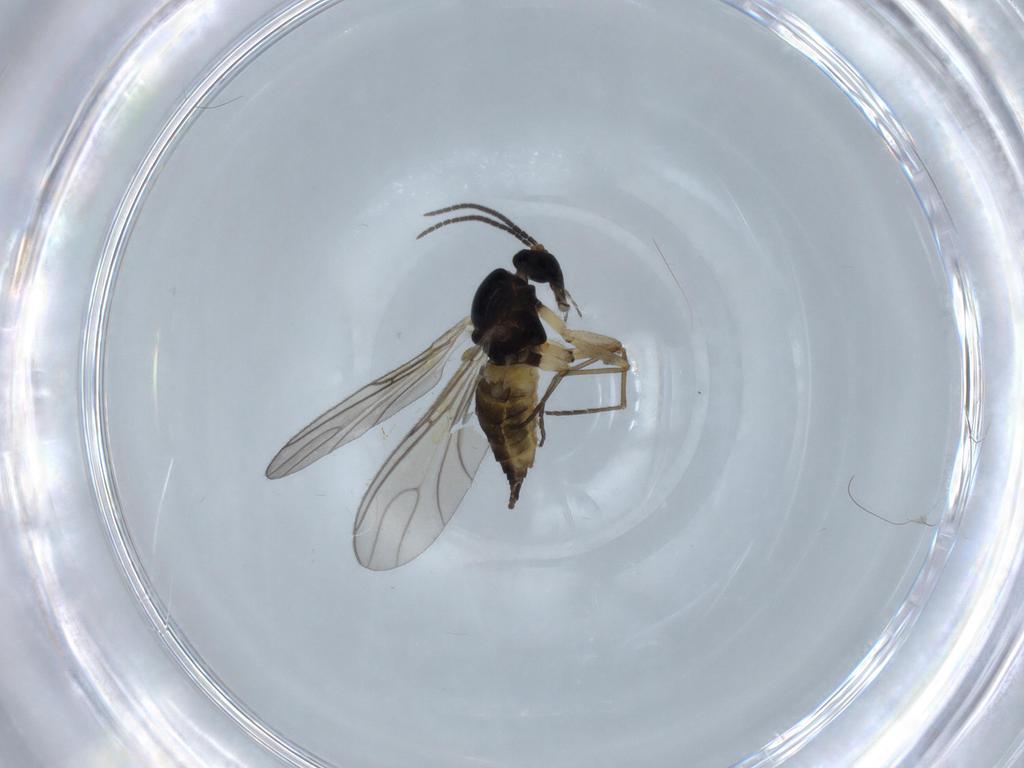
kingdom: Animalia
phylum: Arthropoda
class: Insecta
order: Diptera
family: Sciaridae
